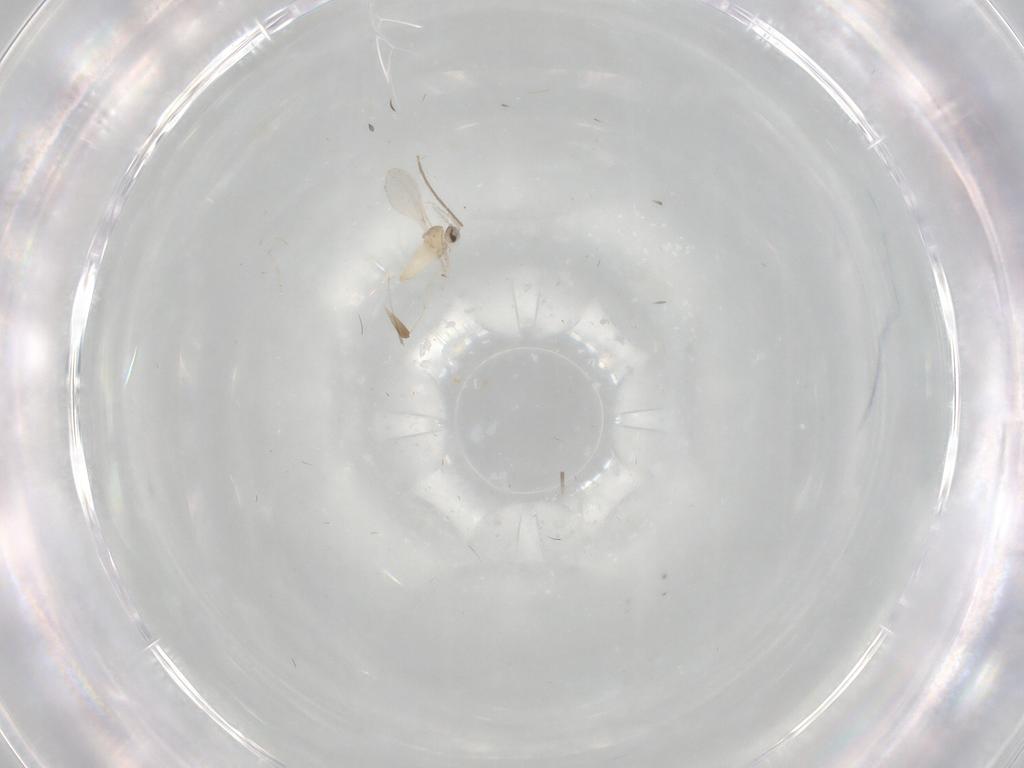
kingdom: Animalia
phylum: Arthropoda
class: Insecta
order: Diptera
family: Cecidomyiidae
